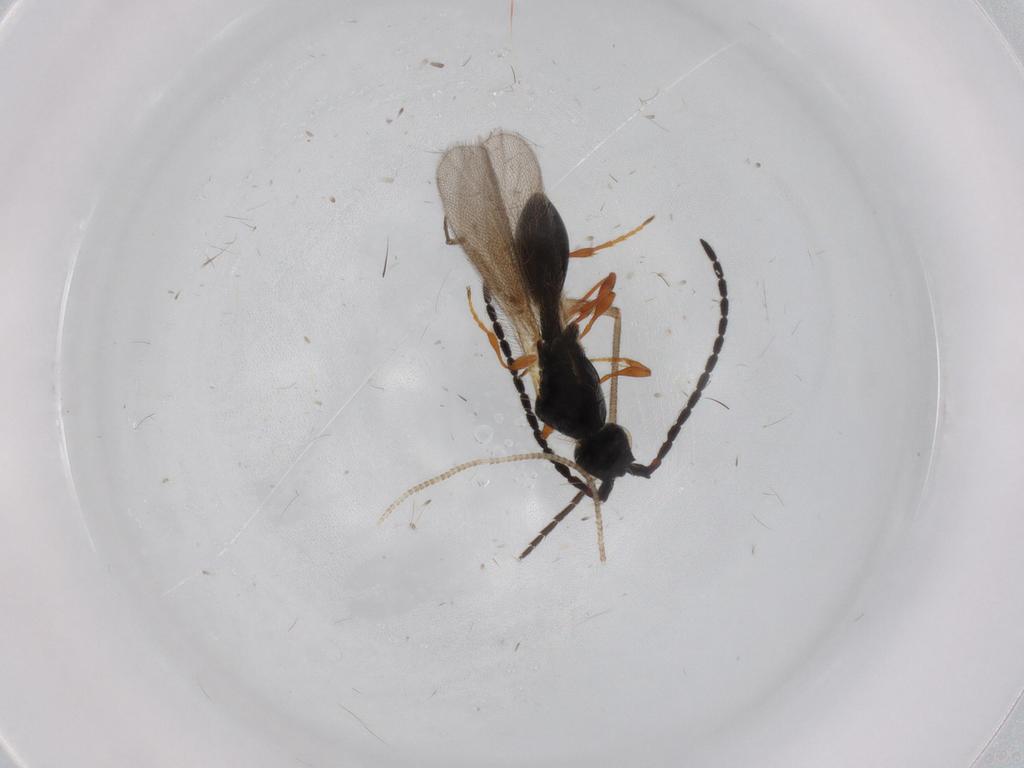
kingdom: Animalia
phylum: Arthropoda
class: Insecta
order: Hymenoptera
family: Diapriidae
